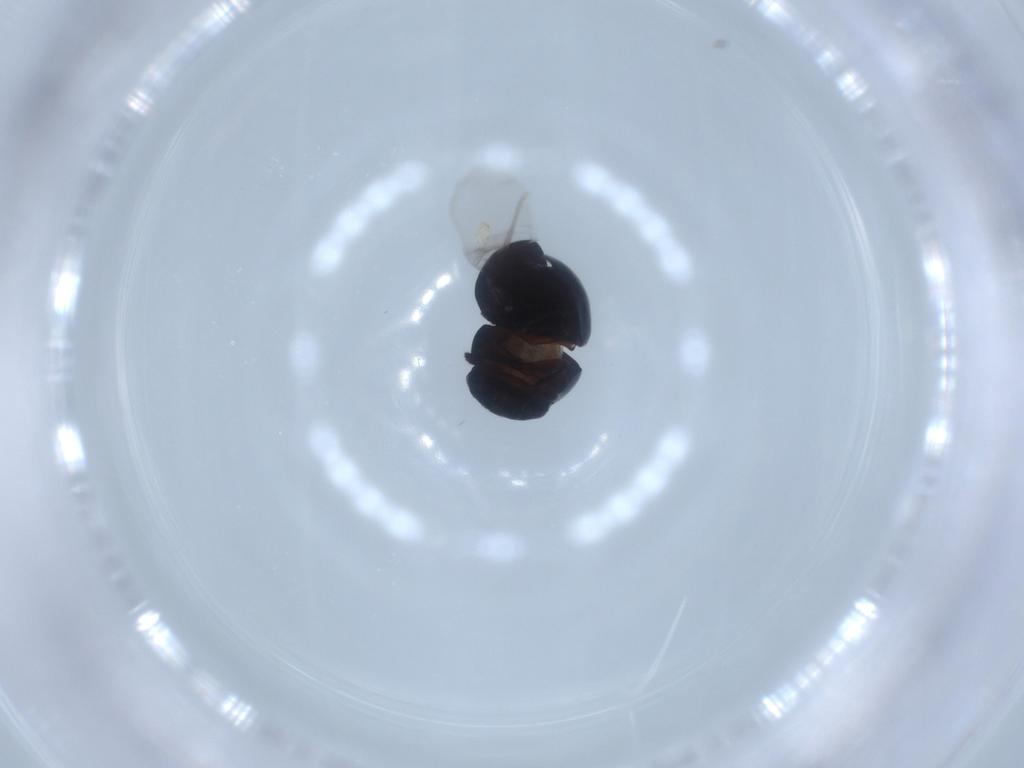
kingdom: Animalia
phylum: Arthropoda
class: Insecta
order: Coleoptera
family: Cybocephalidae
